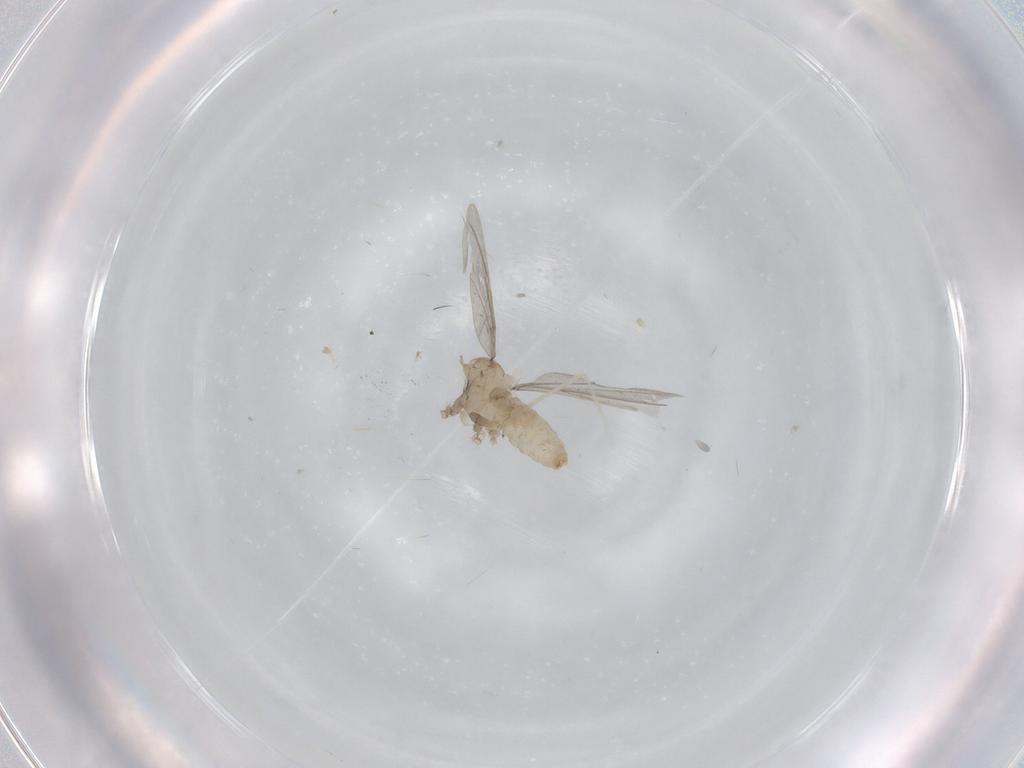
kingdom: Animalia
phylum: Arthropoda
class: Insecta
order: Diptera
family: Cecidomyiidae
